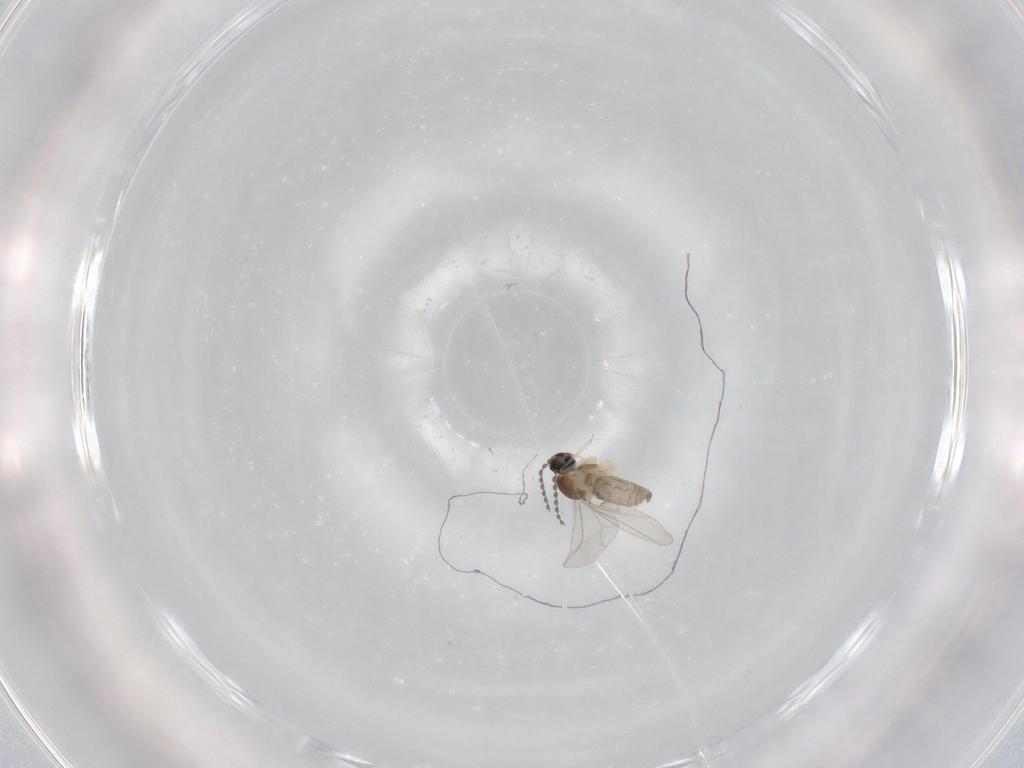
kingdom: Animalia
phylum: Arthropoda
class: Insecta
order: Diptera
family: Cecidomyiidae
